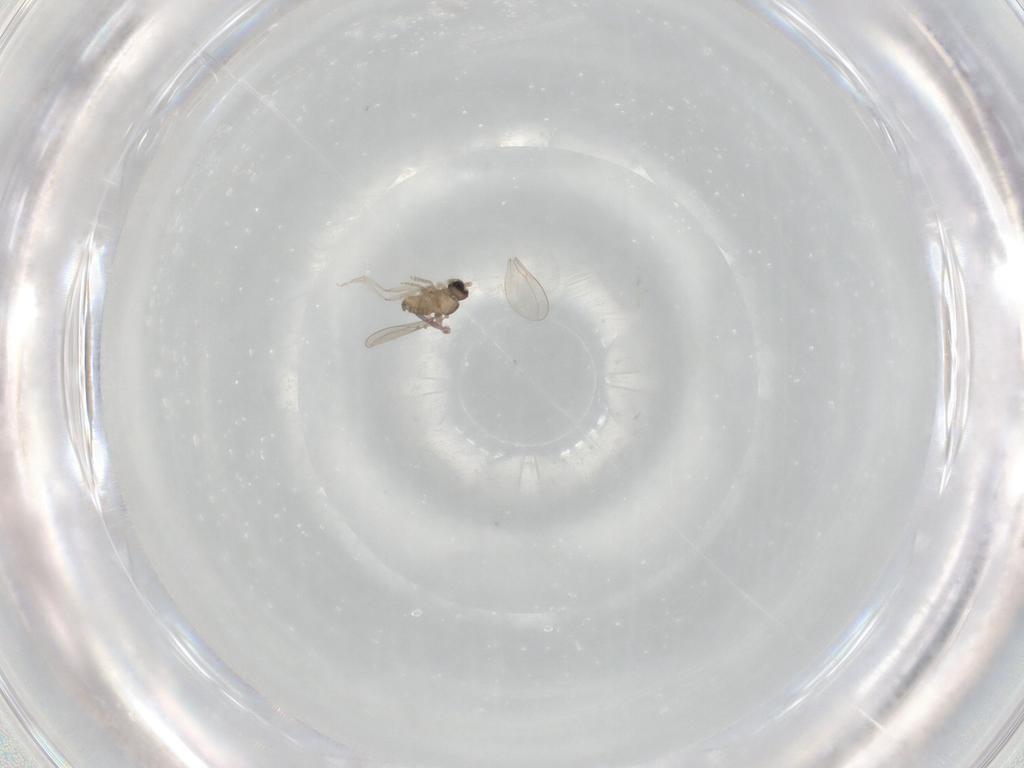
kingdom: Animalia
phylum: Arthropoda
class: Insecta
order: Diptera
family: Cecidomyiidae
